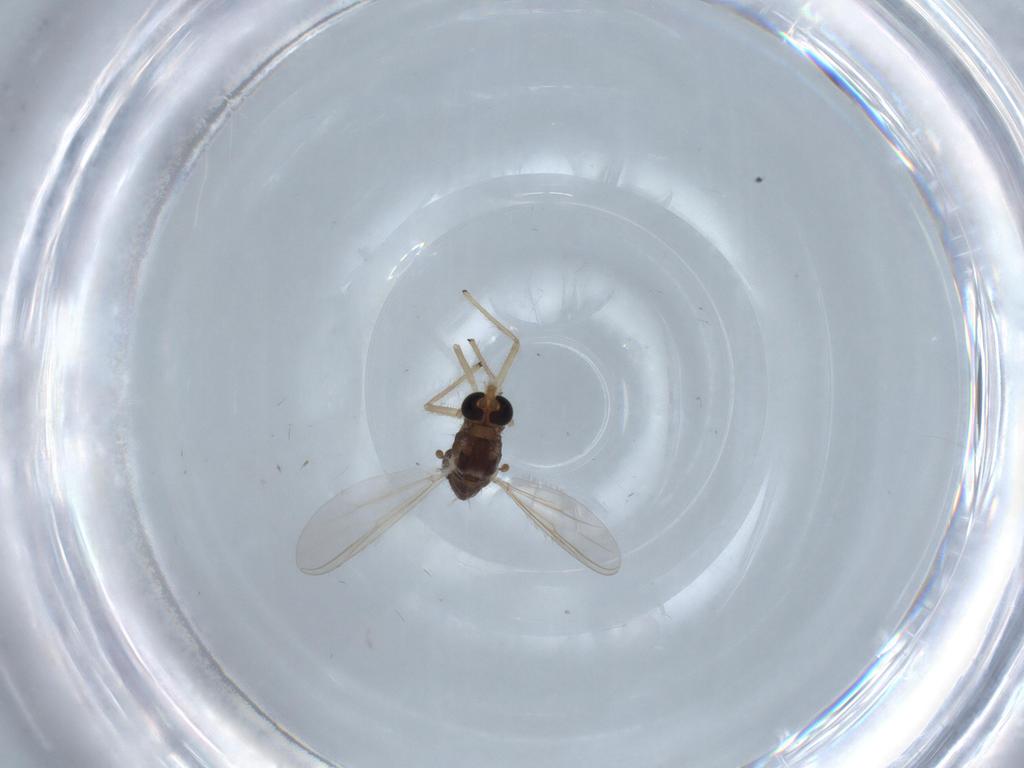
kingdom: Animalia
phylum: Arthropoda
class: Insecta
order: Diptera
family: Chironomidae
